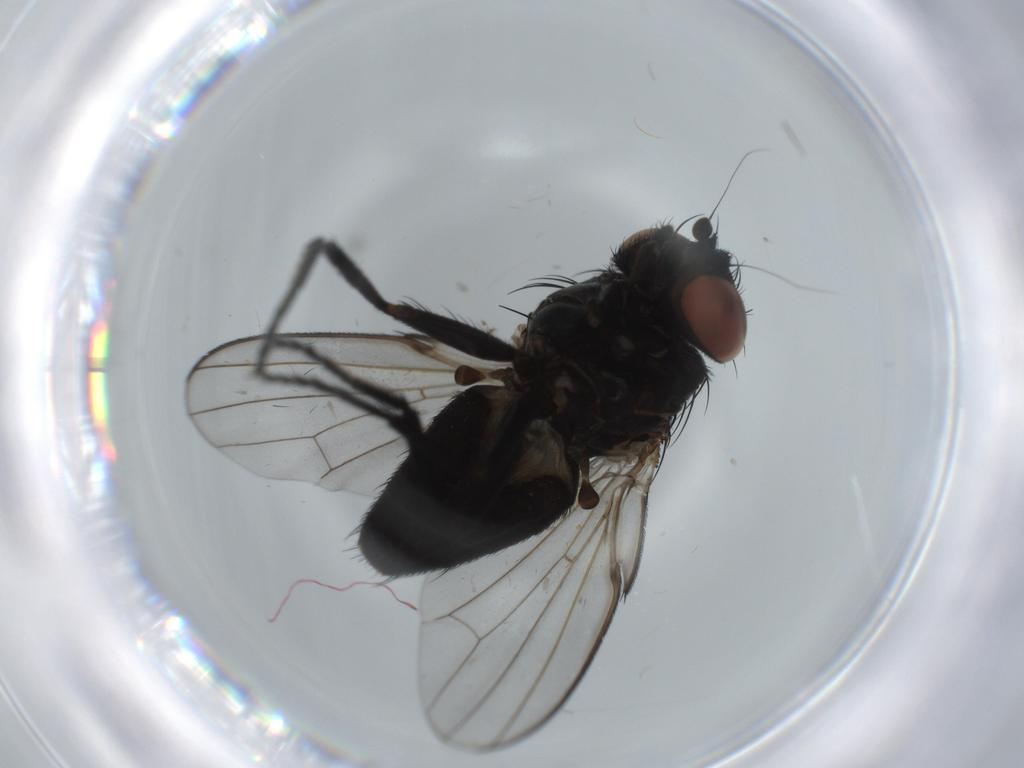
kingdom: Animalia
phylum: Arthropoda
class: Insecta
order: Diptera
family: Milichiidae
